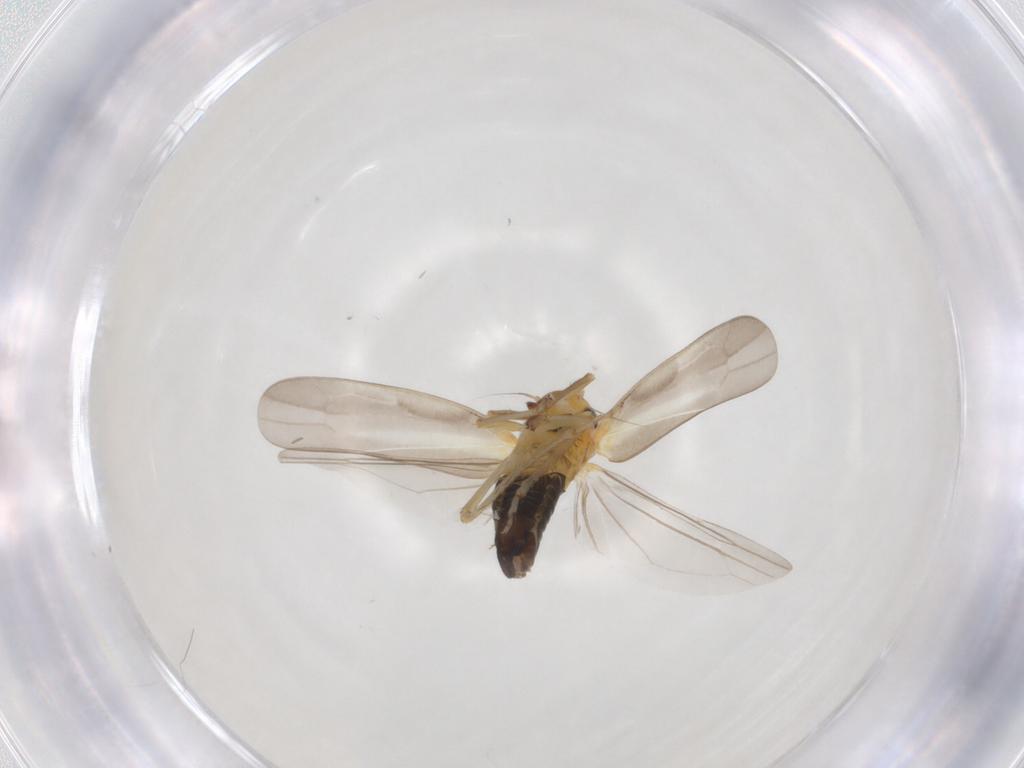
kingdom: Animalia
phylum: Arthropoda
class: Insecta
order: Hemiptera
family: Cicadellidae
